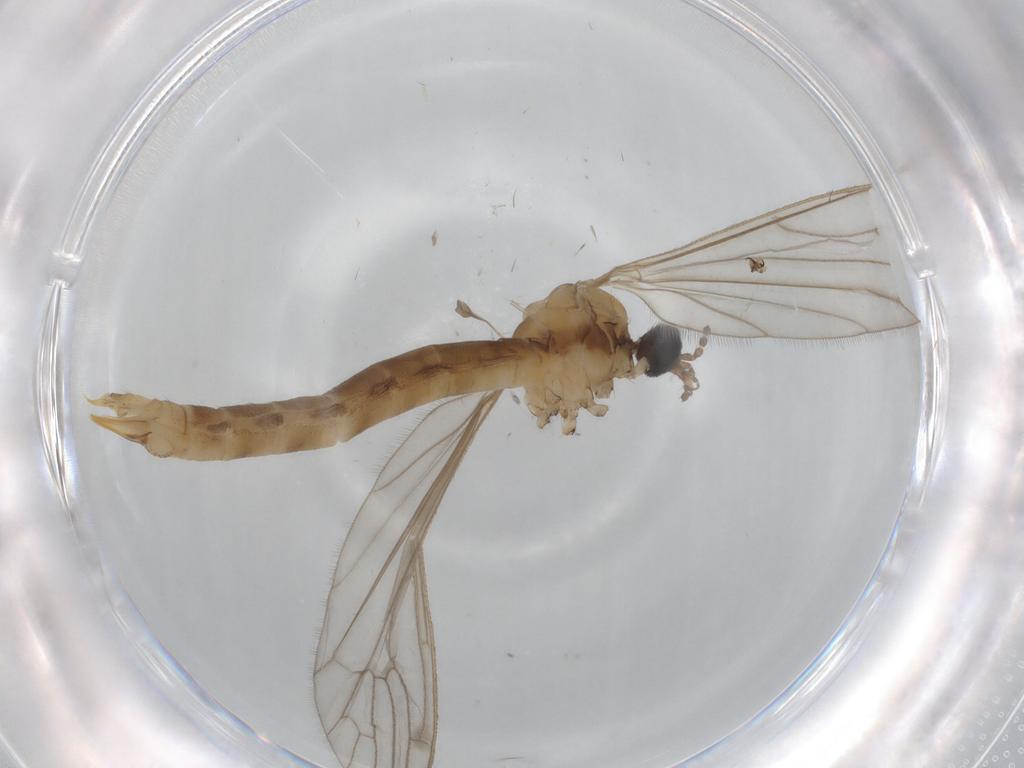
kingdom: Animalia
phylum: Arthropoda
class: Insecta
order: Diptera
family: Limoniidae
